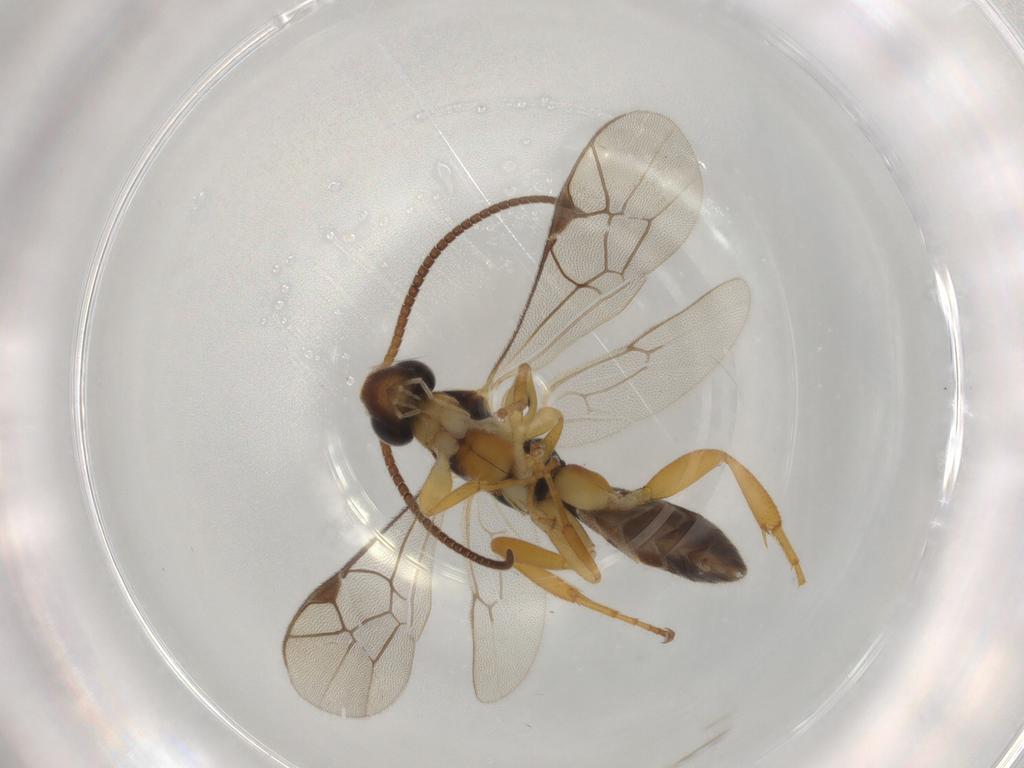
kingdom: Animalia
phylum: Arthropoda
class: Insecta
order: Hymenoptera
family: Ichneumonidae
